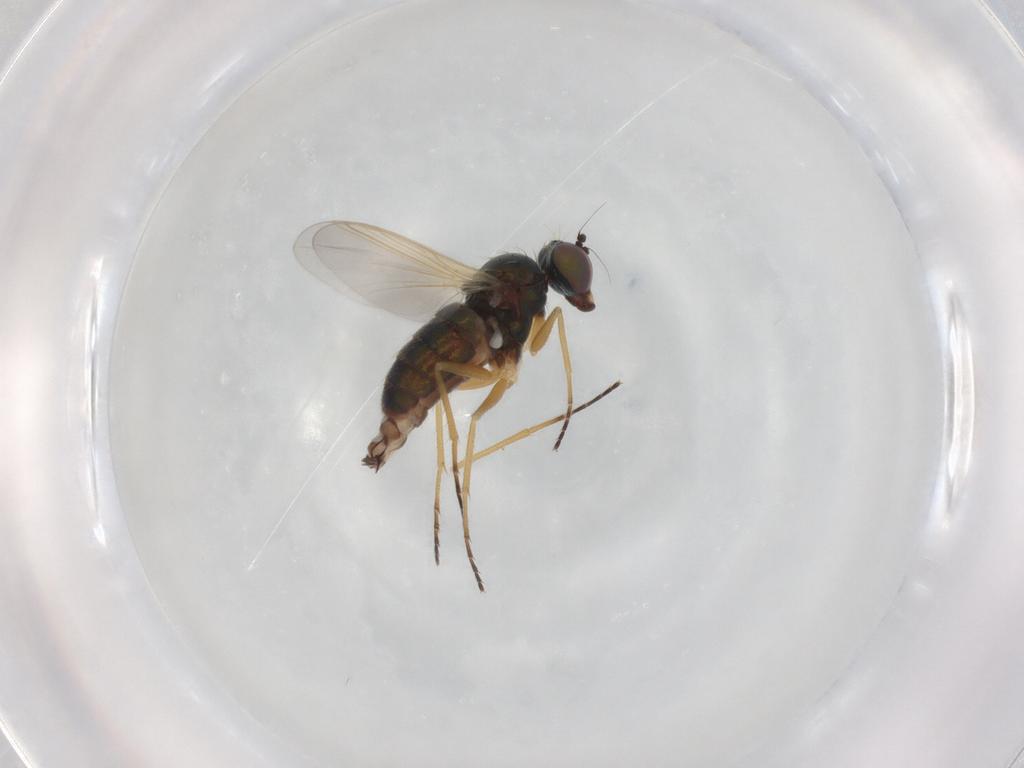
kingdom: Animalia
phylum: Arthropoda
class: Insecta
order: Diptera
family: Dolichopodidae
